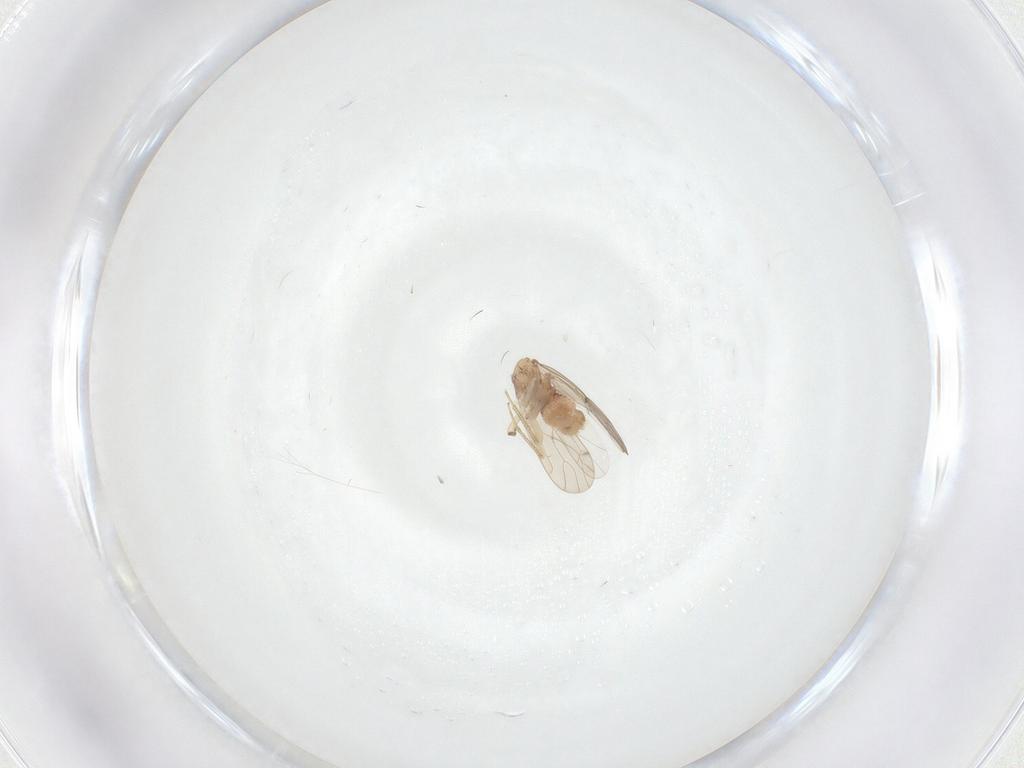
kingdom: Animalia
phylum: Arthropoda
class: Insecta
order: Psocodea
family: Ectopsocidae
